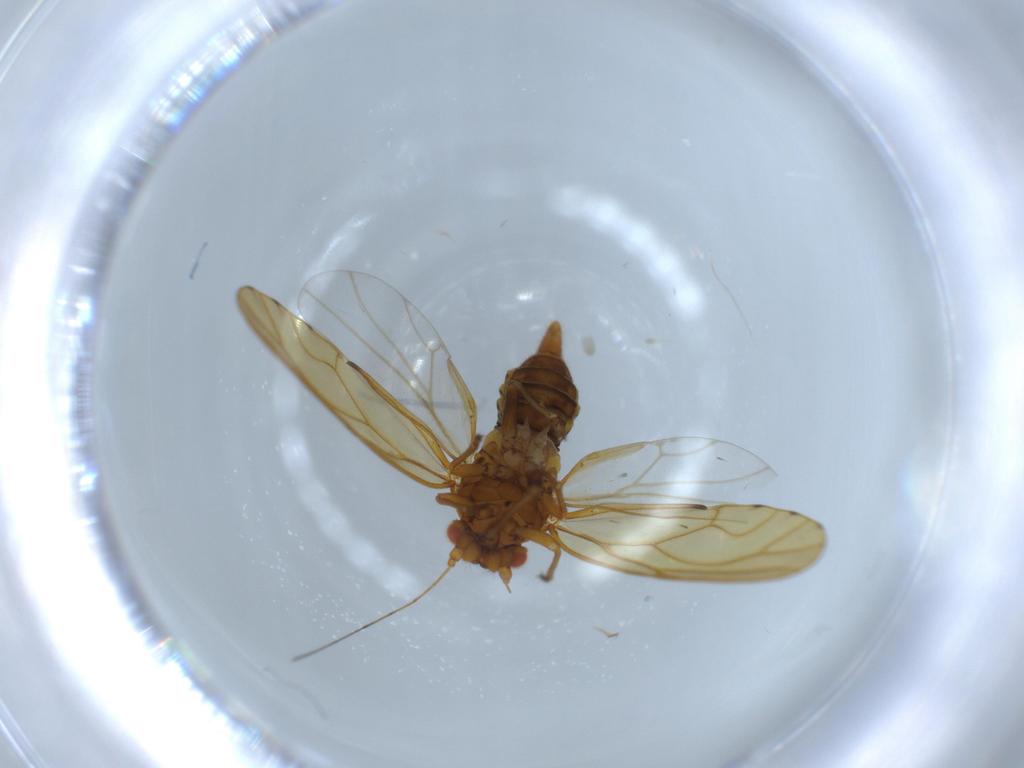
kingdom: Animalia
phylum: Arthropoda
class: Insecta
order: Hemiptera
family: Psylloidea_incertae_sedis
